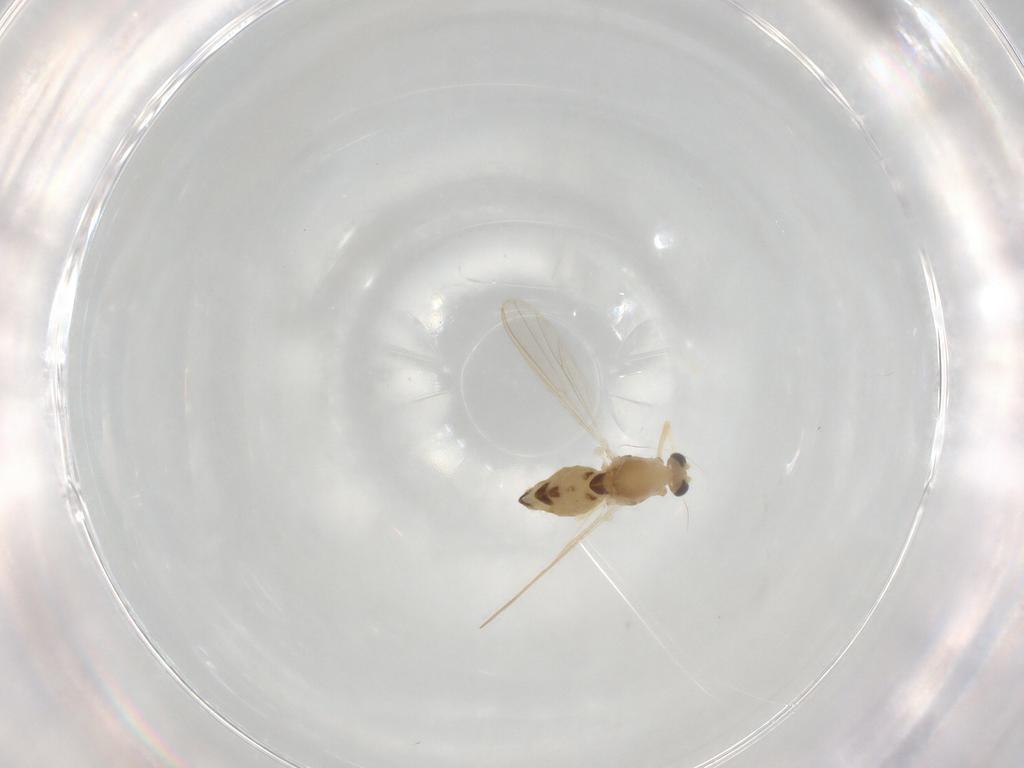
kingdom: Animalia
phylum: Arthropoda
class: Insecta
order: Diptera
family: Chironomidae
